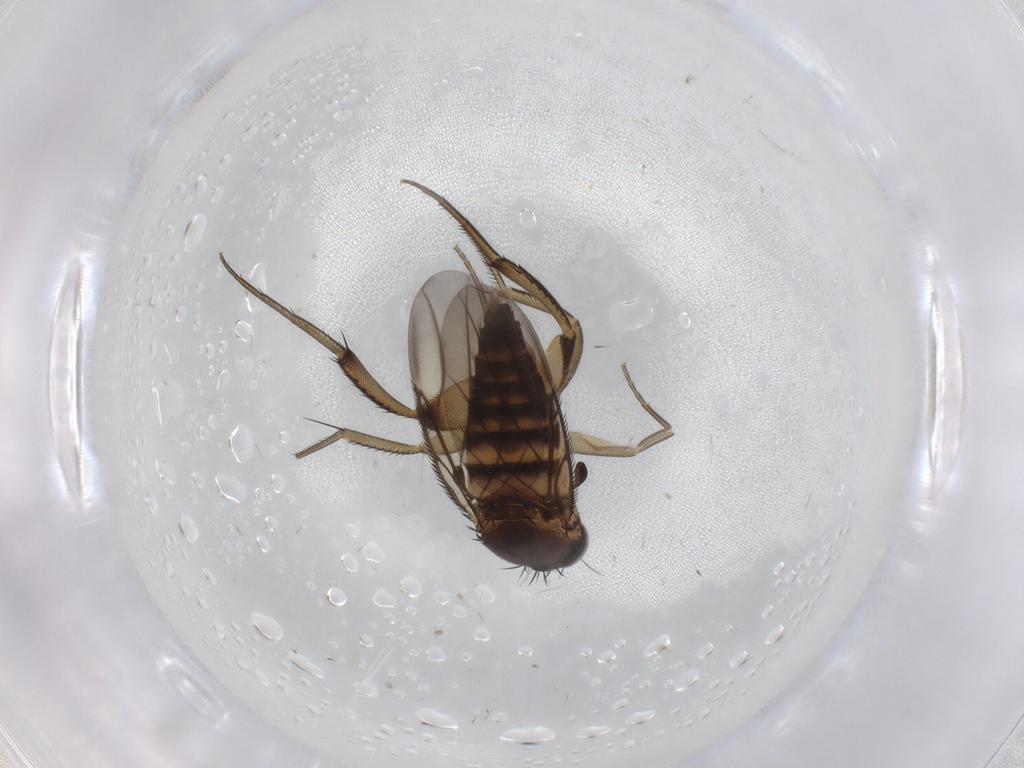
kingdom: Animalia
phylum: Arthropoda
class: Insecta
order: Diptera
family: Phoridae
